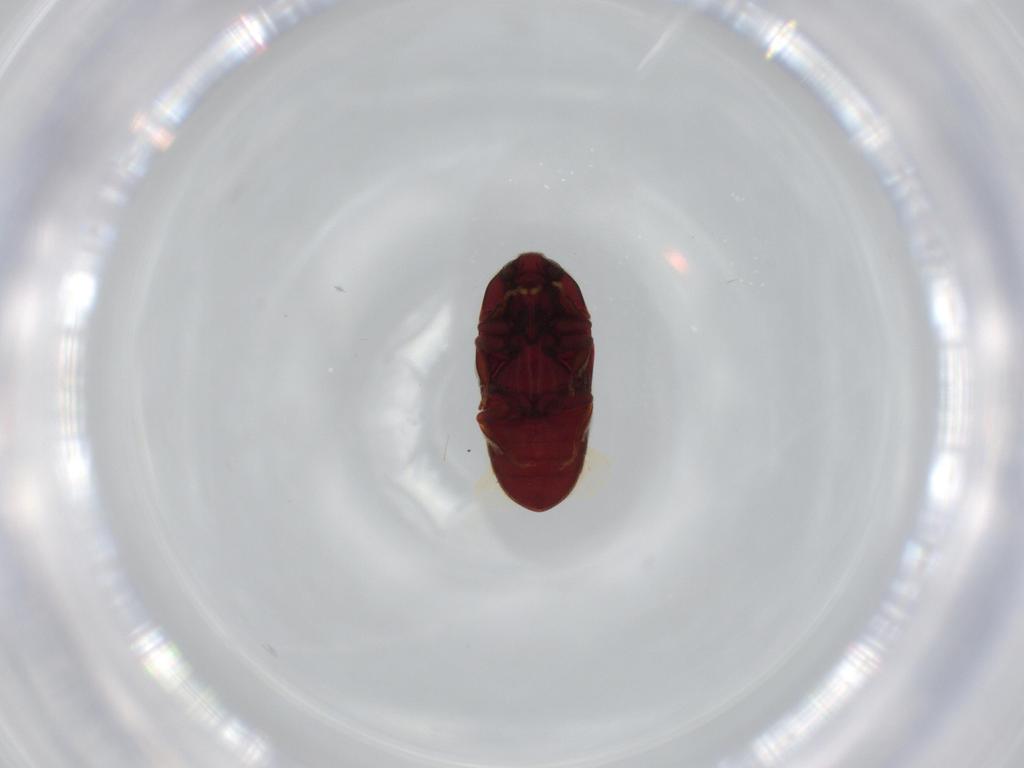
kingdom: Animalia
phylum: Arthropoda
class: Insecta
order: Coleoptera
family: Throscidae
